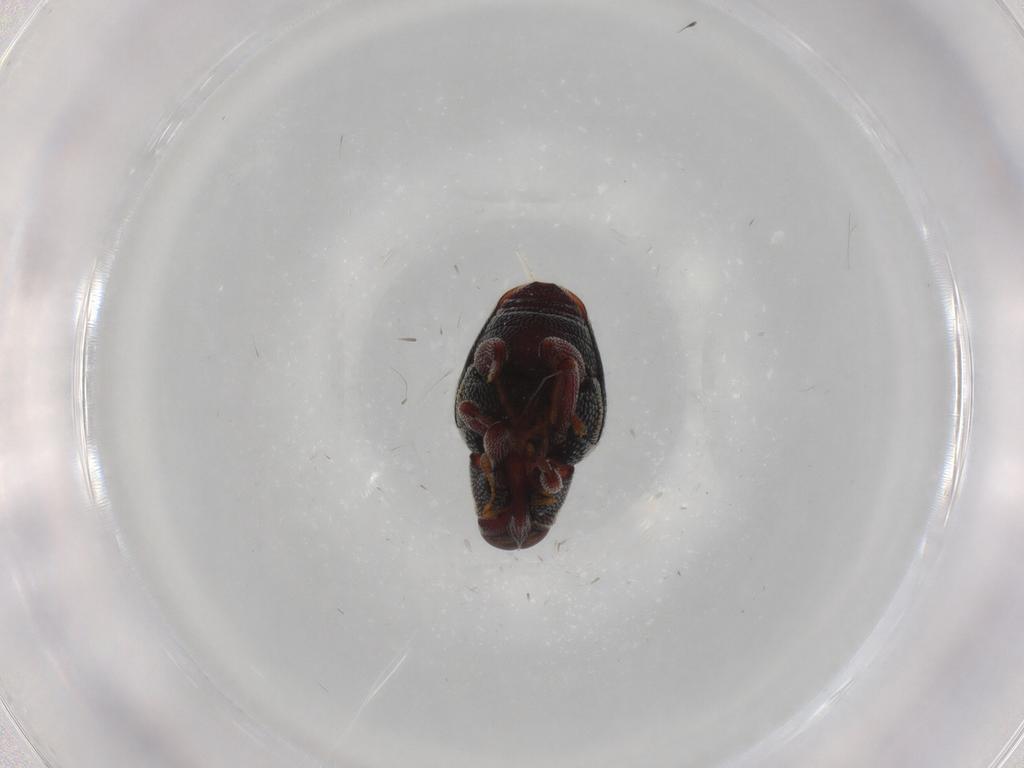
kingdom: Animalia
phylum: Arthropoda
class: Insecta
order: Coleoptera
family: Curculionidae
